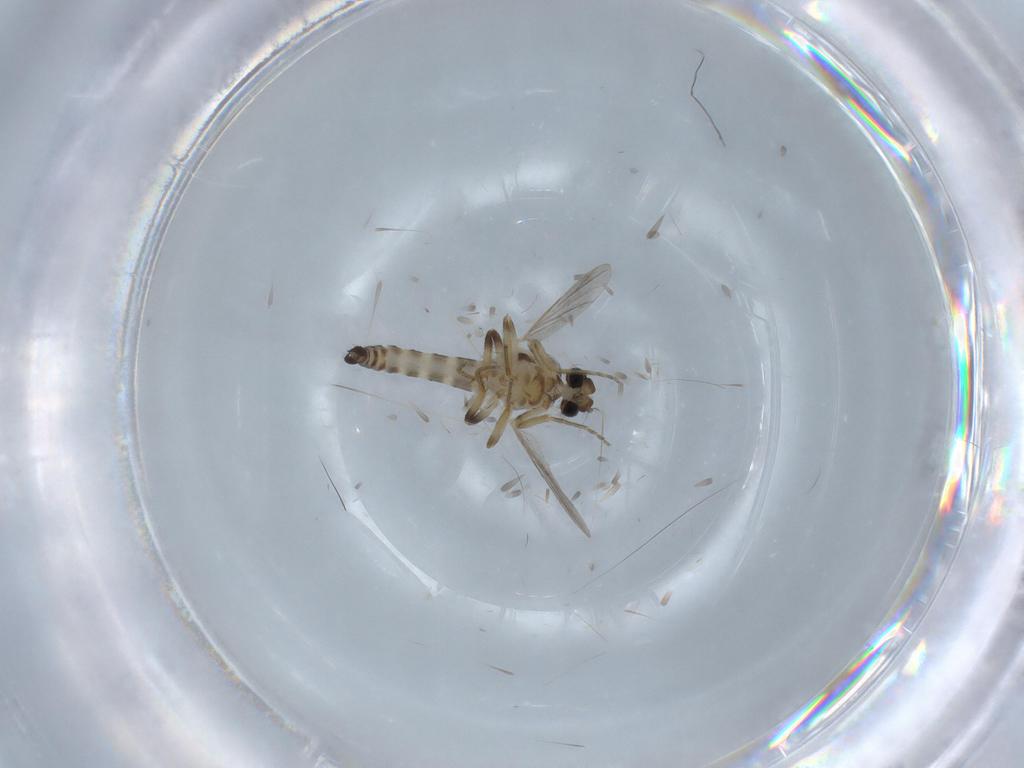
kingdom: Animalia
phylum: Arthropoda
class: Insecta
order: Diptera
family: Ceratopogonidae
